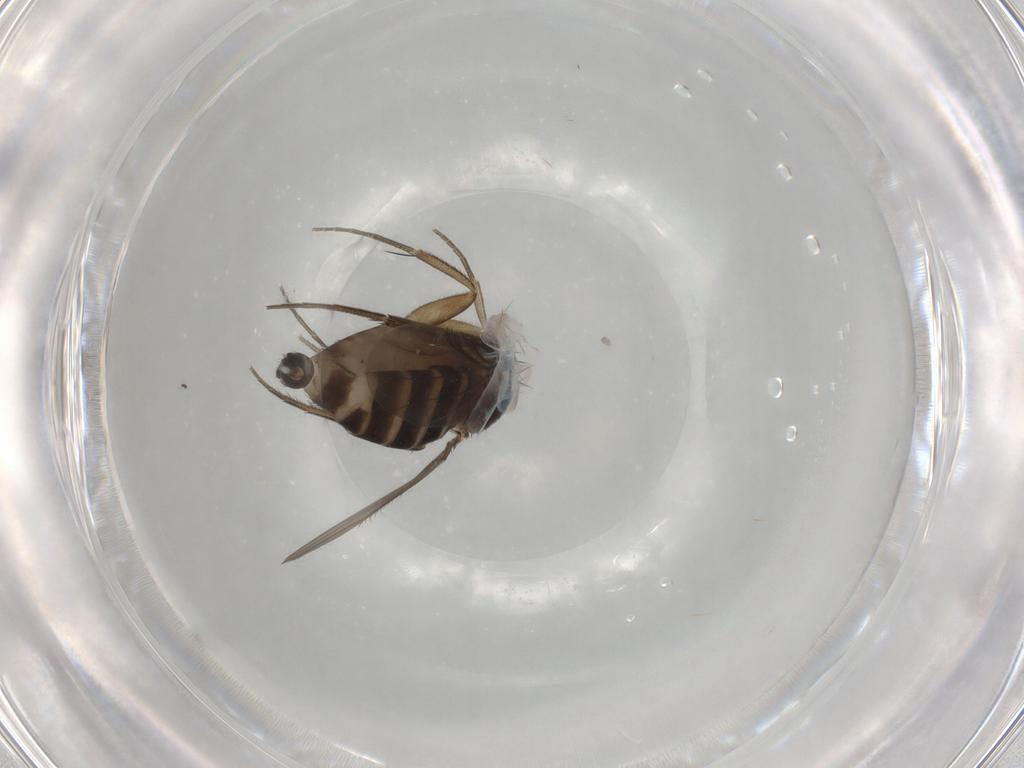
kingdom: Animalia
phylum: Arthropoda
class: Insecta
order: Diptera
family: Phoridae
